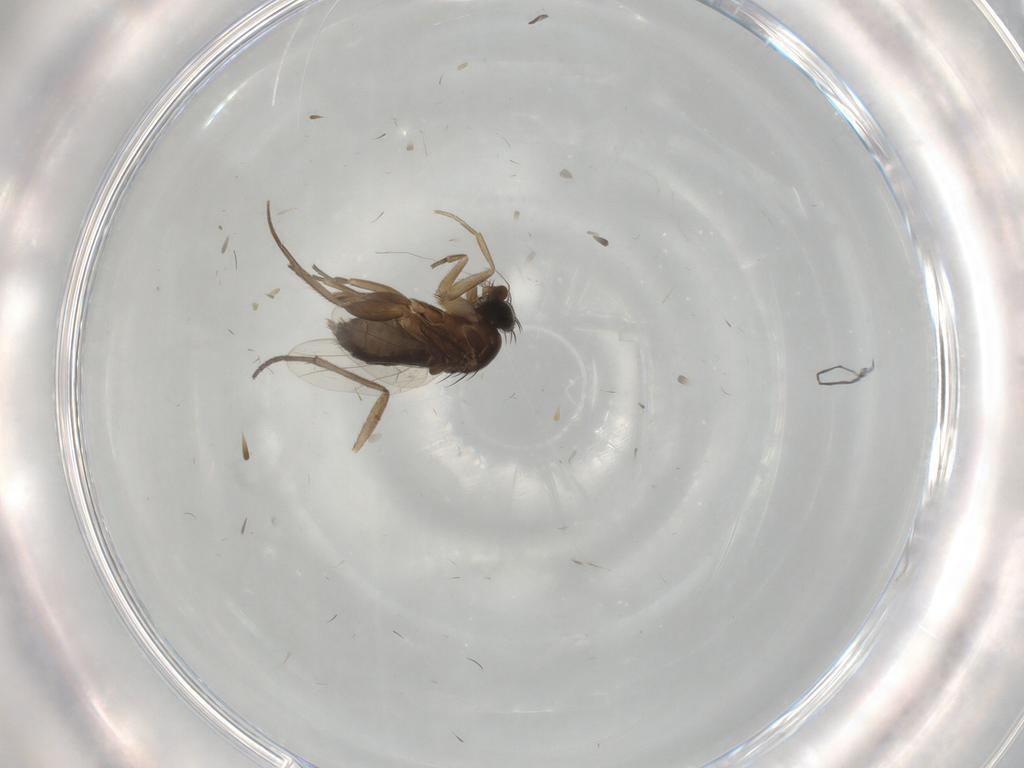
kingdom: Animalia
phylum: Arthropoda
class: Insecta
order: Diptera
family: Phoridae
